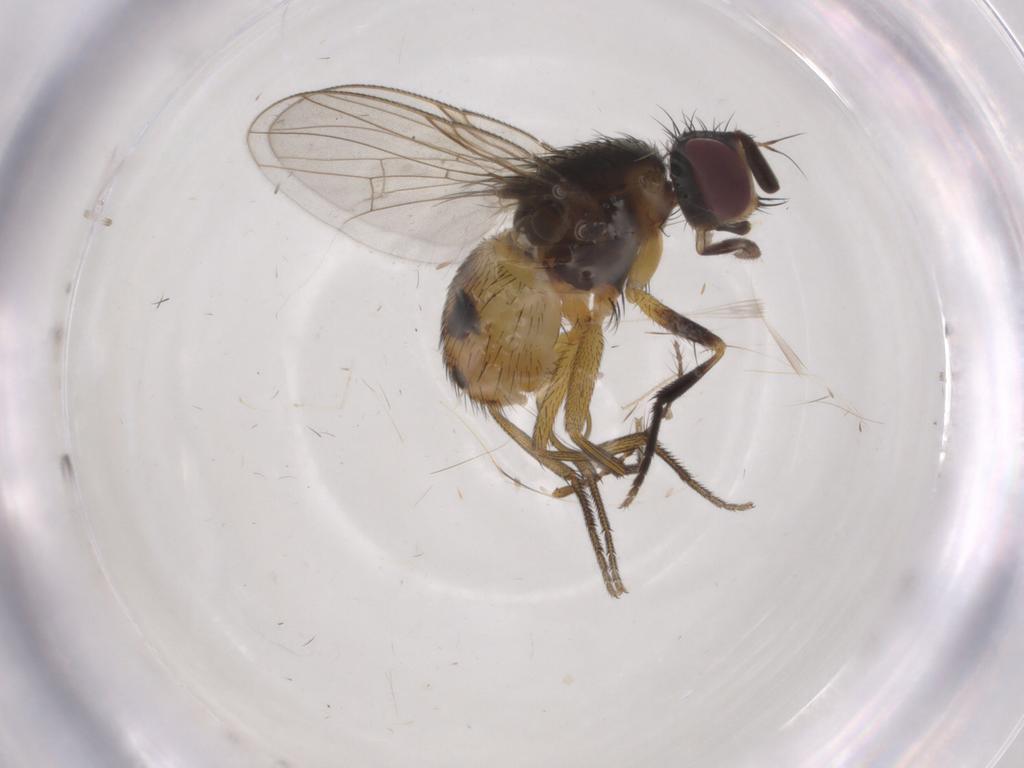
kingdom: Animalia
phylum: Arthropoda
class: Insecta
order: Diptera
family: Muscidae
